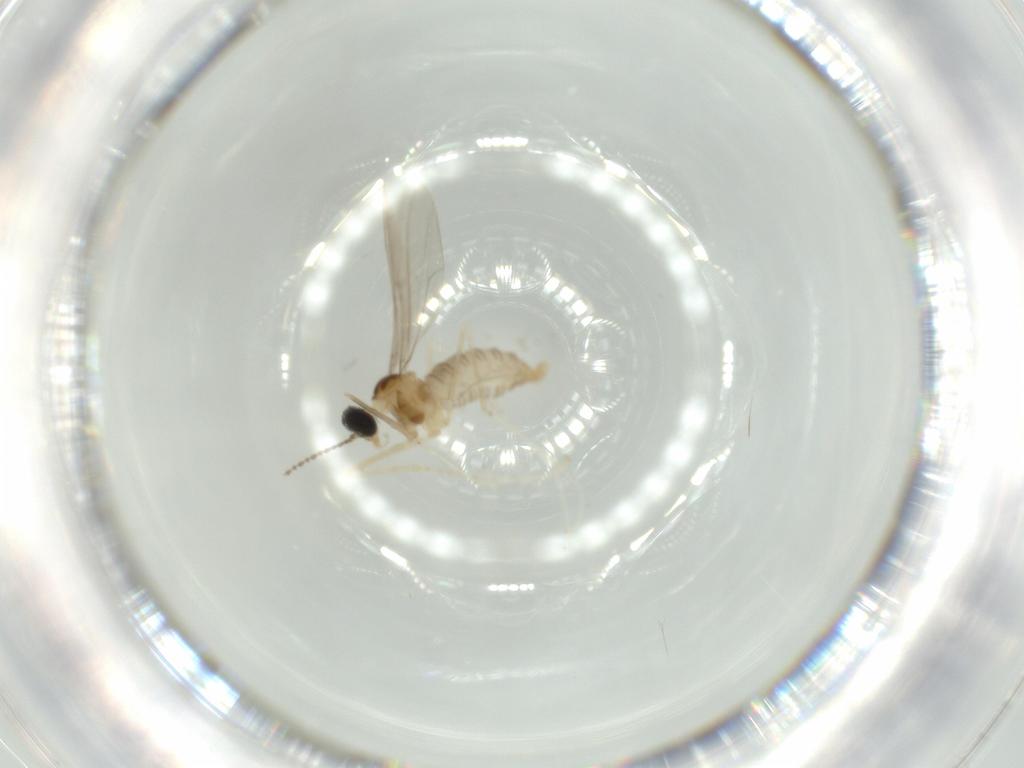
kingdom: Animalia
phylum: Arthropoda
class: Insecta
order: Diptera
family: Cecidomyiidae
